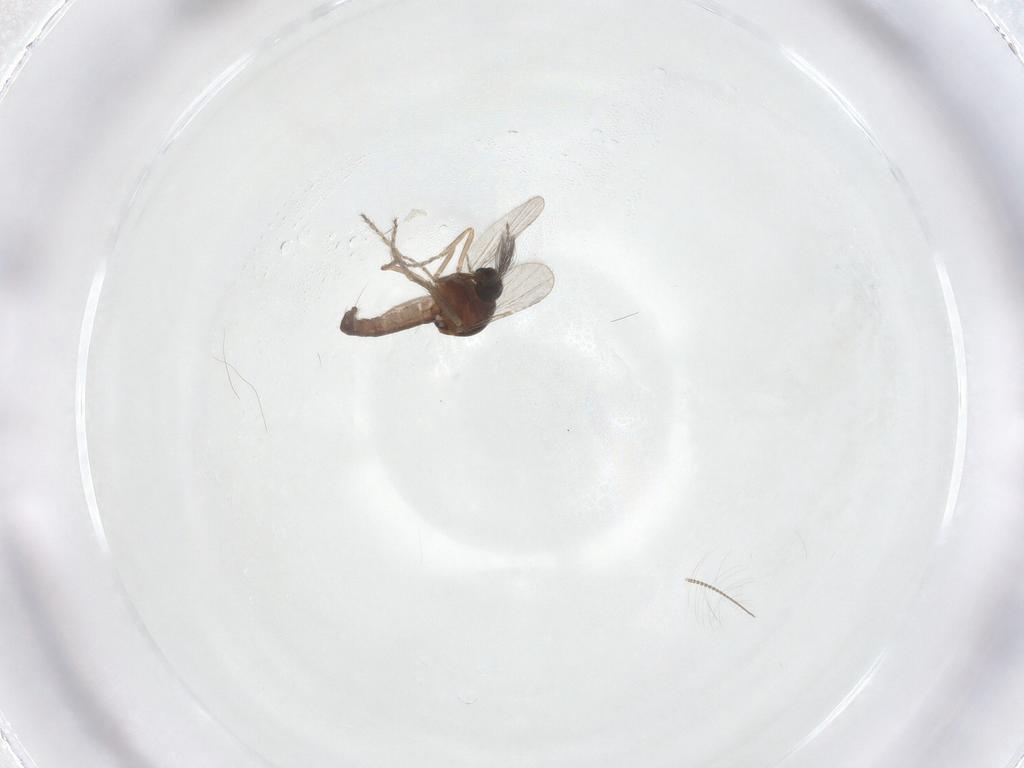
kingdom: Animalia
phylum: Arthropoda
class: Insecta
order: Diptera
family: Ceratopogonidae
